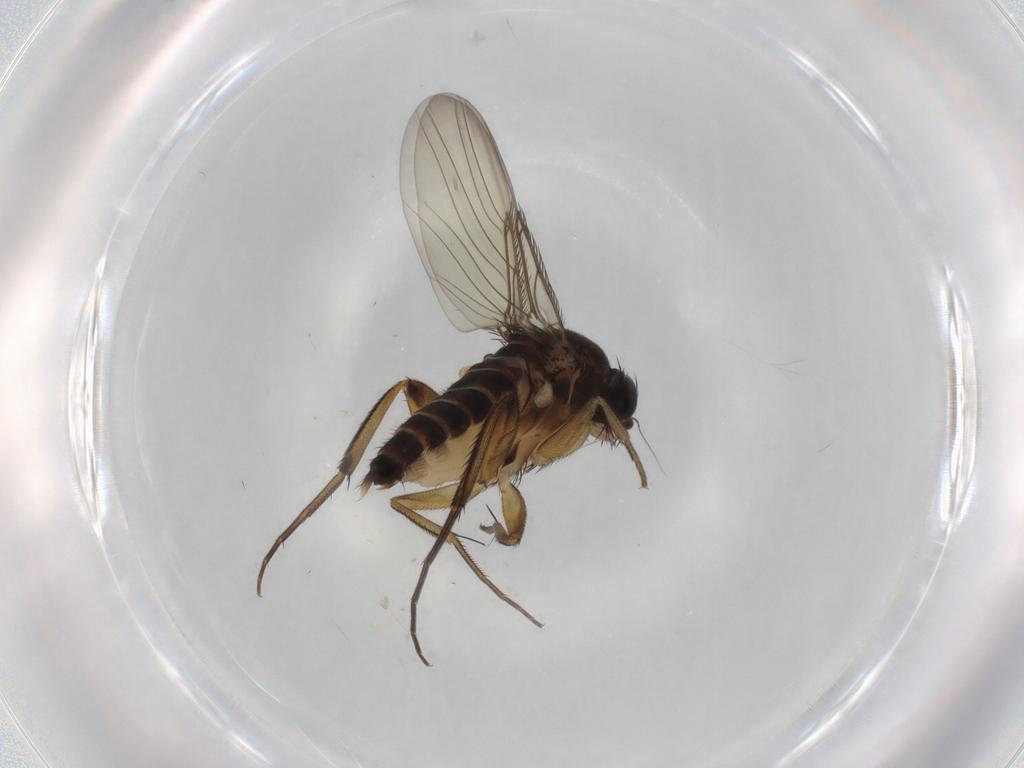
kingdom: Animalia
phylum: Arthropoda
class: Insecta
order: Diptera
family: Phoridae
